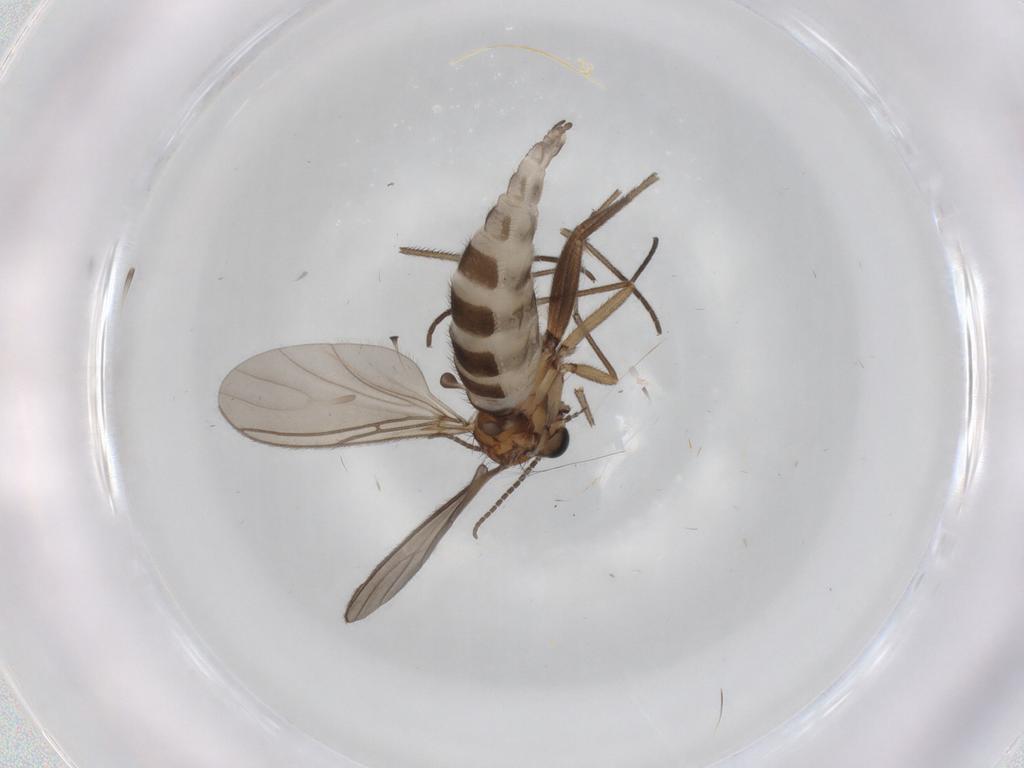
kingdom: Animalia
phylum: Arthropoda
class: Insecta
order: Diptera
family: Sciaridae
